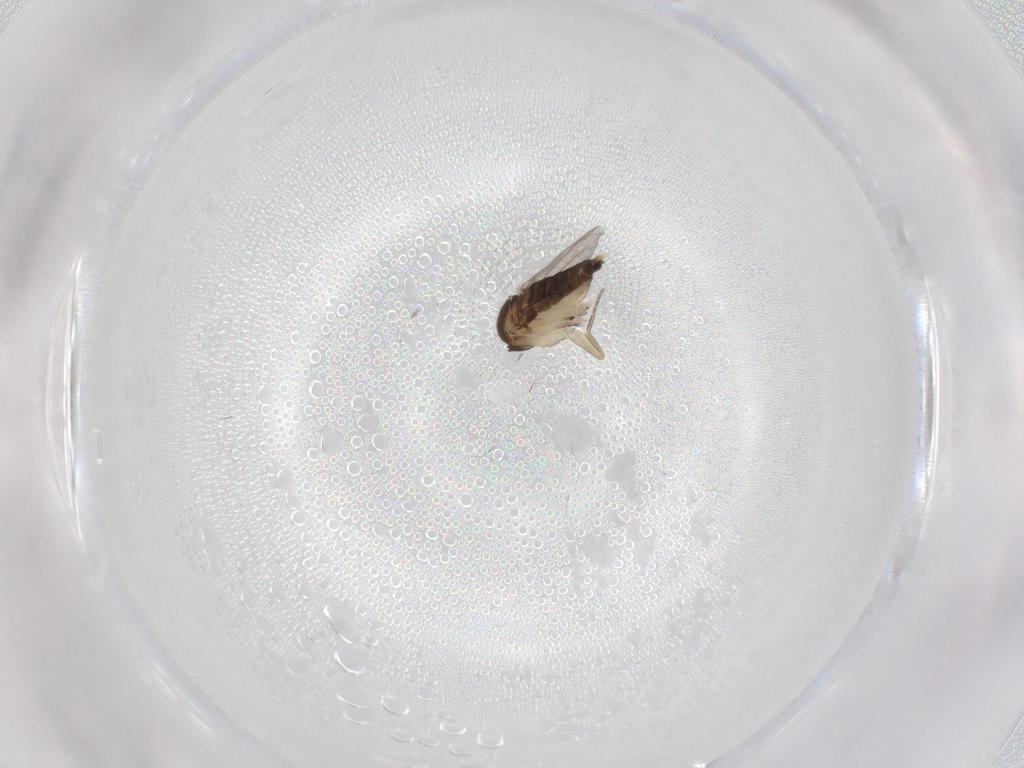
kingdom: Animalia
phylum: Arthropoda
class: Insecta
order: Diptera
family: Phoridae
